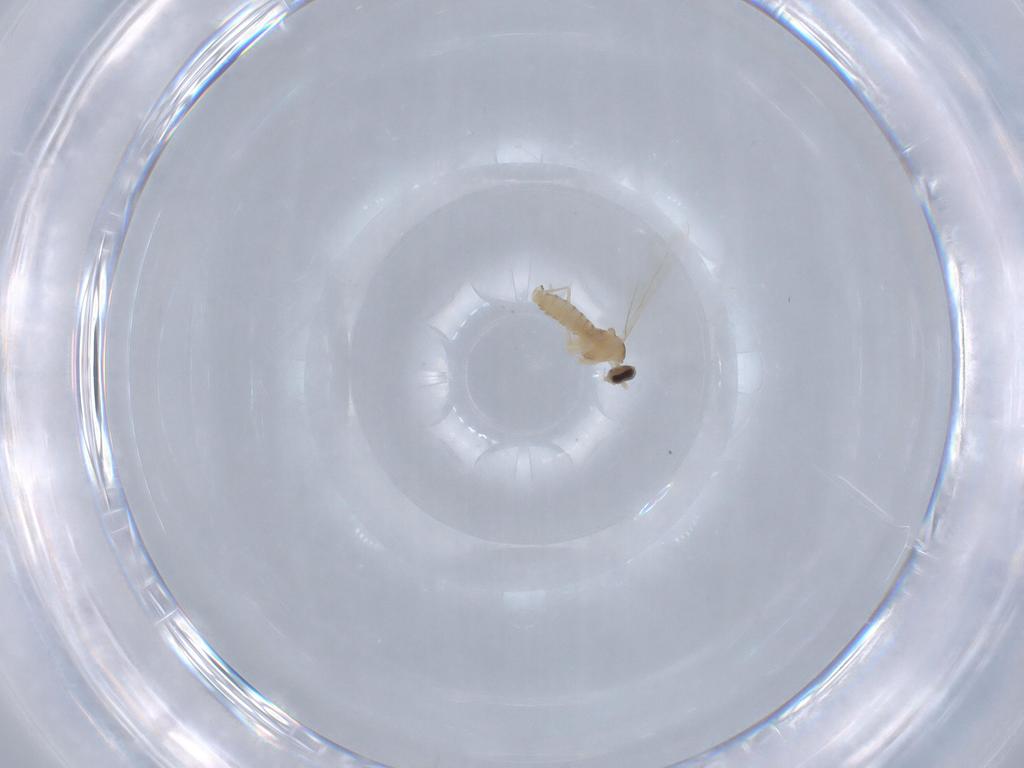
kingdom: Animalia
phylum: Arthropoda
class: Insecta
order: Diptera
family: Cecidomyiidae
